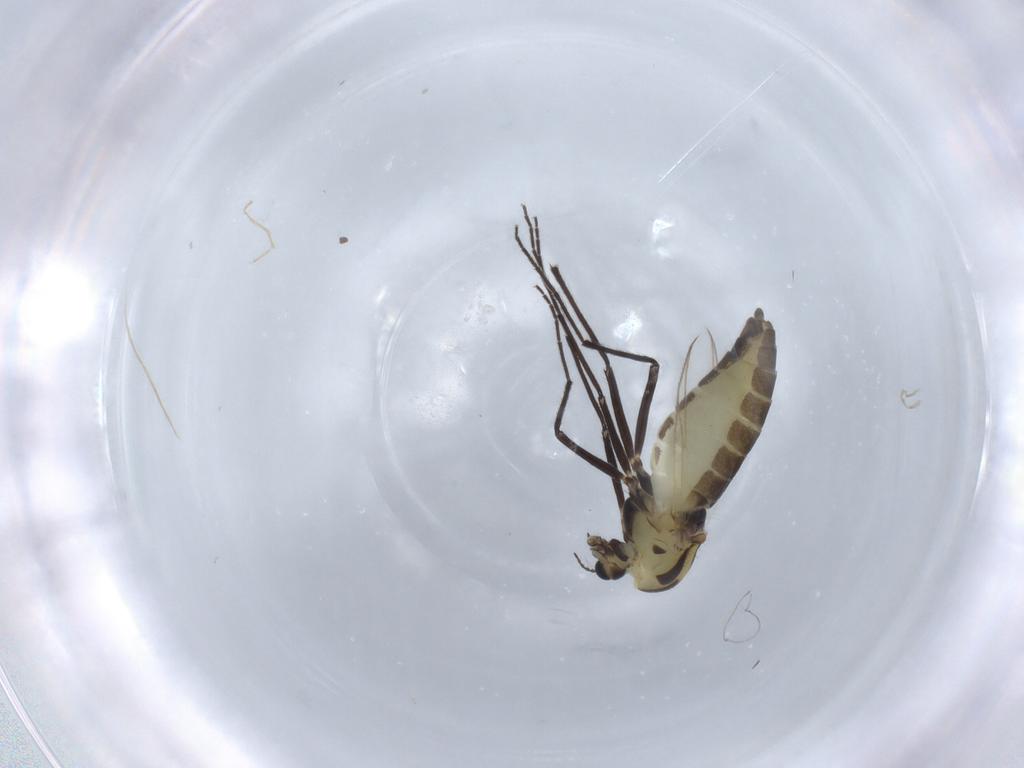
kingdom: Animalia
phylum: Arthropoda
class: Insecta
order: Diptera
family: Chironomidae
